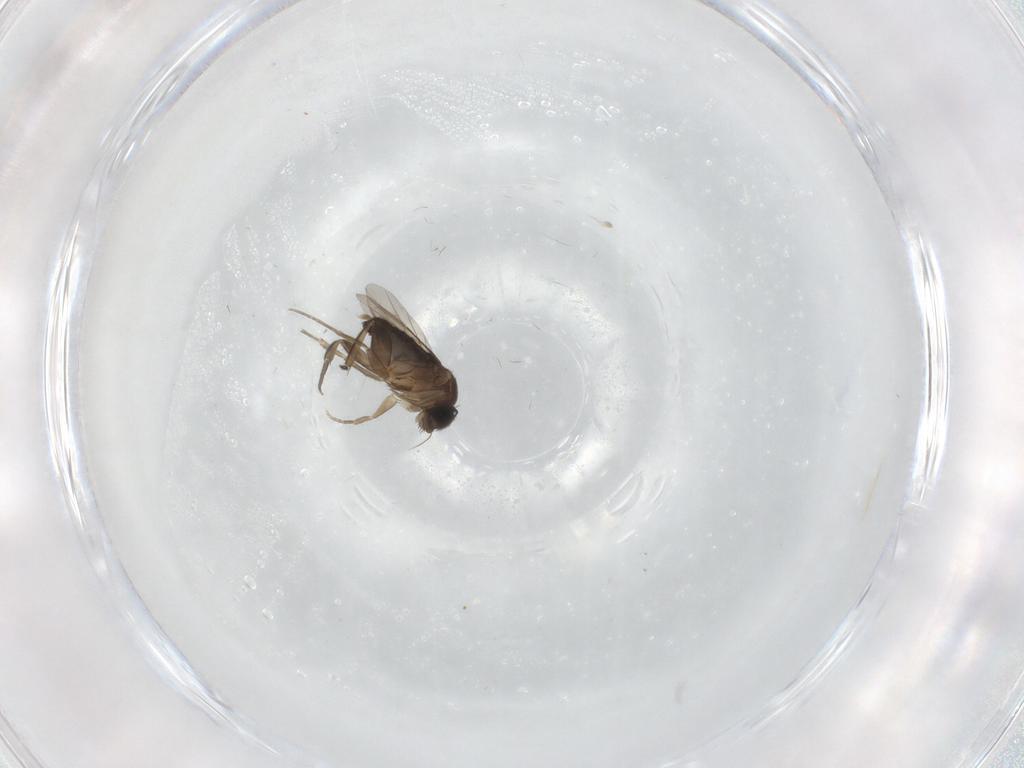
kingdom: Animalia
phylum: Arthropoda
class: Insecta
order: Diptera
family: Phoridae
